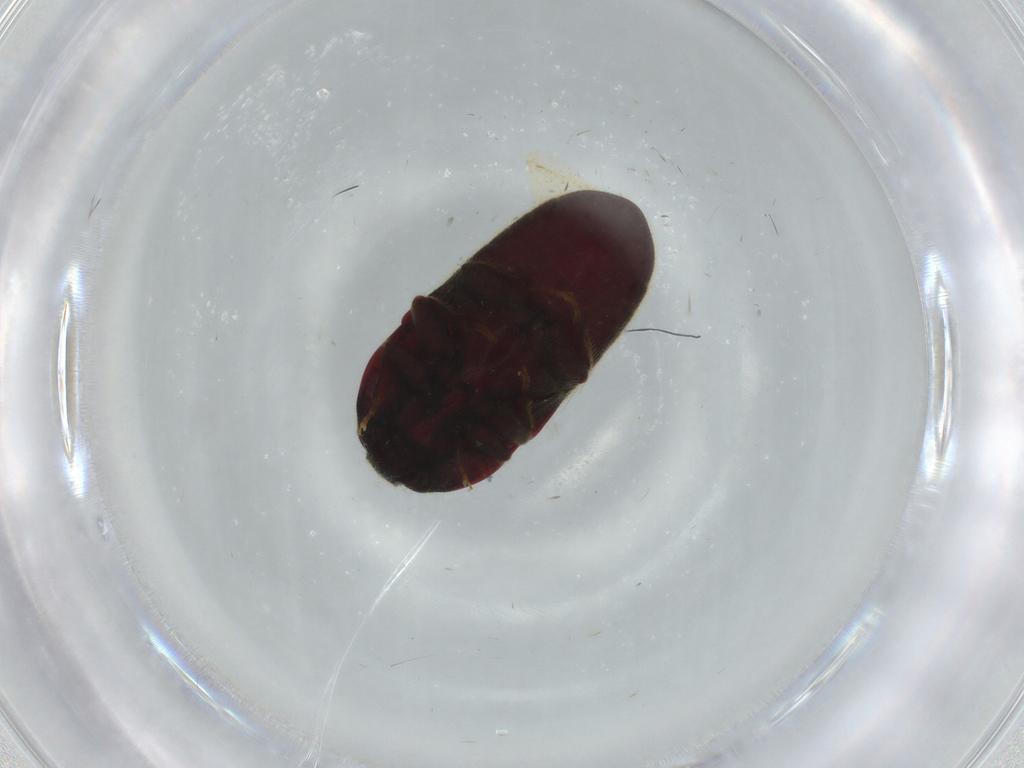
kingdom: Animalia
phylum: Arthropoda
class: Insecta
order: Coleoptera
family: Throscidae
